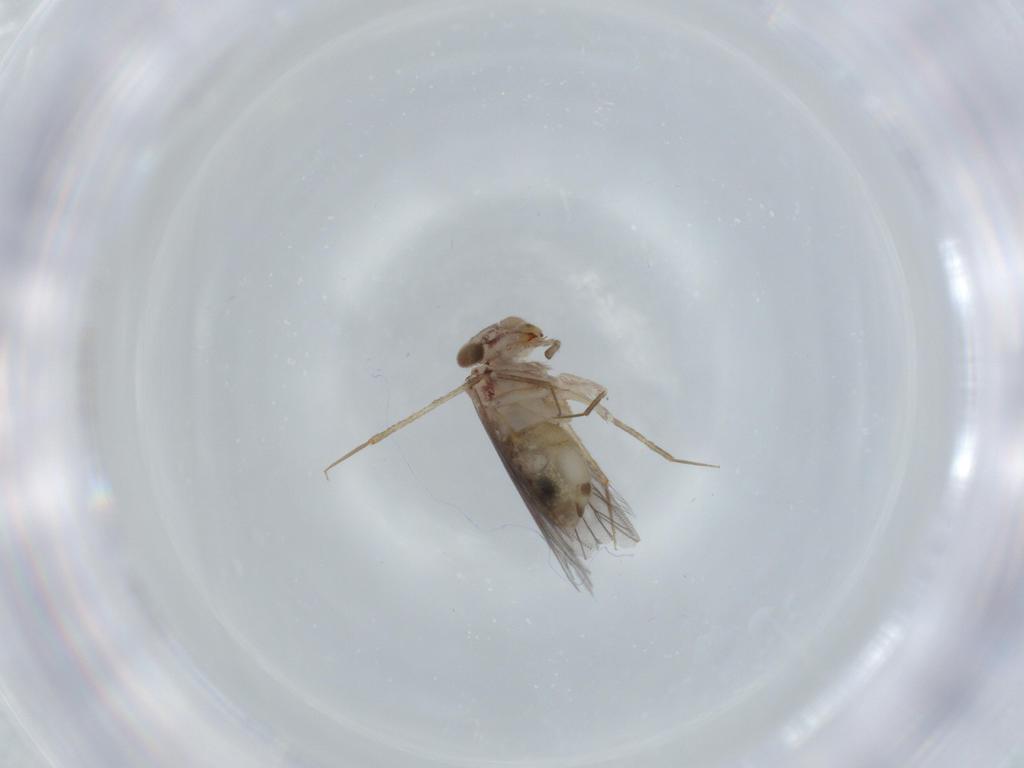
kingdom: Animalia
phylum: Arthropoda
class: Insecta
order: Psocodea
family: Lepidopsocidae
